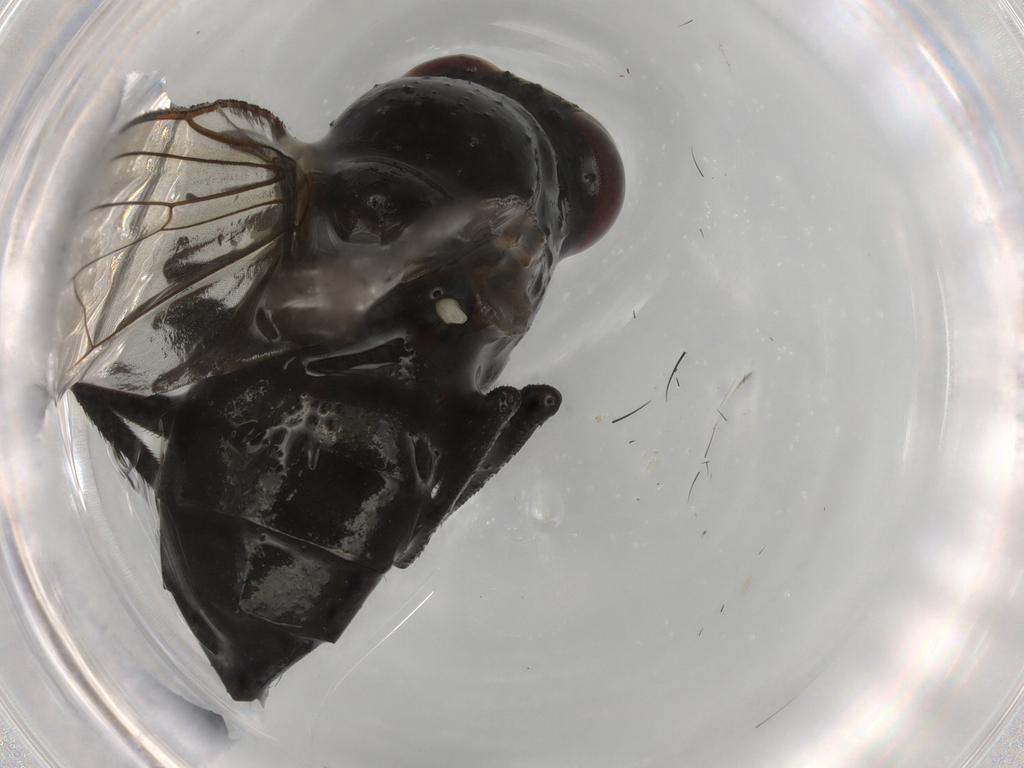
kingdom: Animalia
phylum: Arthropoda
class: Insecta
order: Diptera
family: Anthomyiidae
